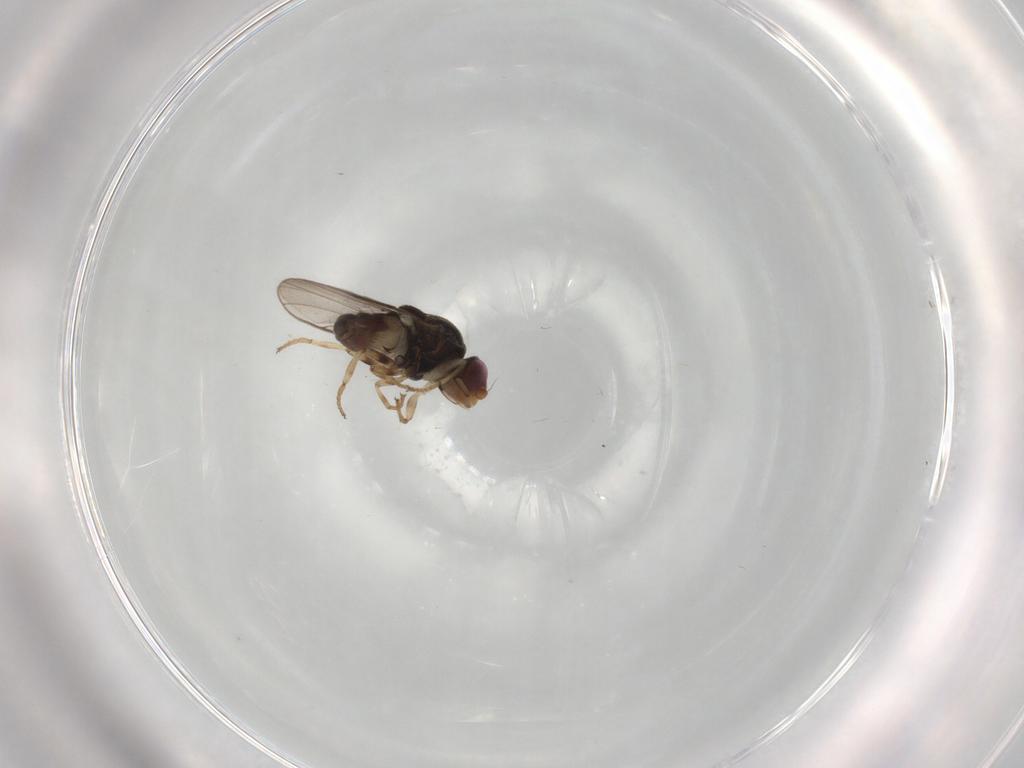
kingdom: Animalia
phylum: Arthropoda
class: Insecta
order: Diptera
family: Chloropidae
